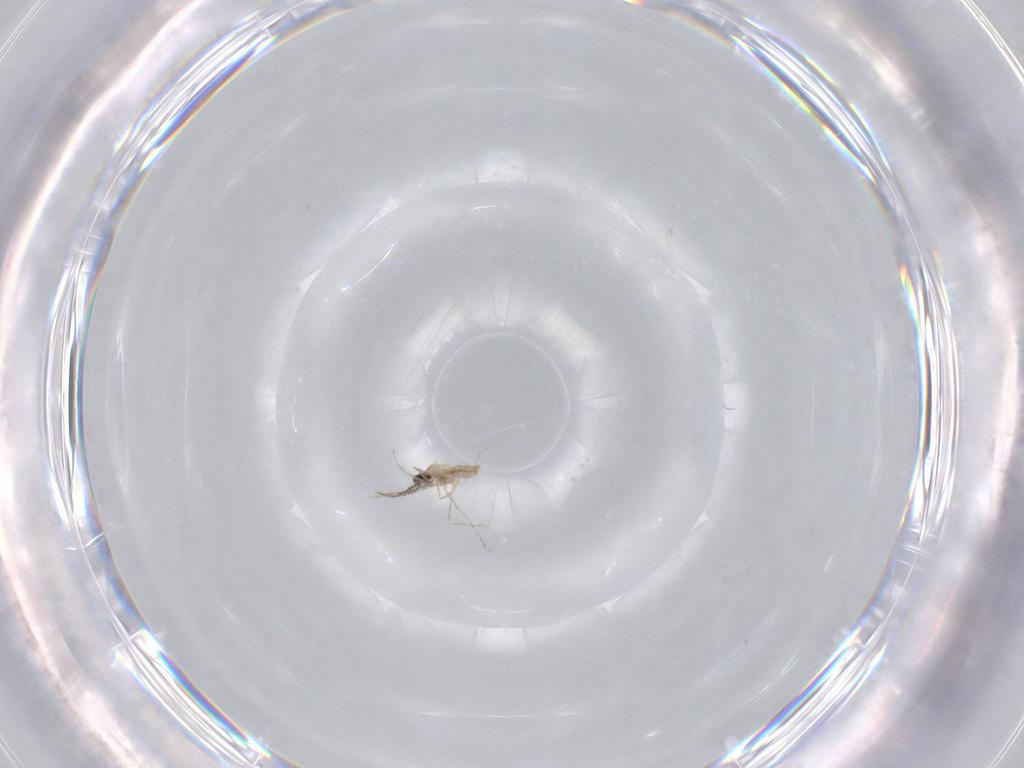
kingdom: Animalia
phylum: Arthropoda
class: Insecta
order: Diptera
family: Cecidomyiidae
